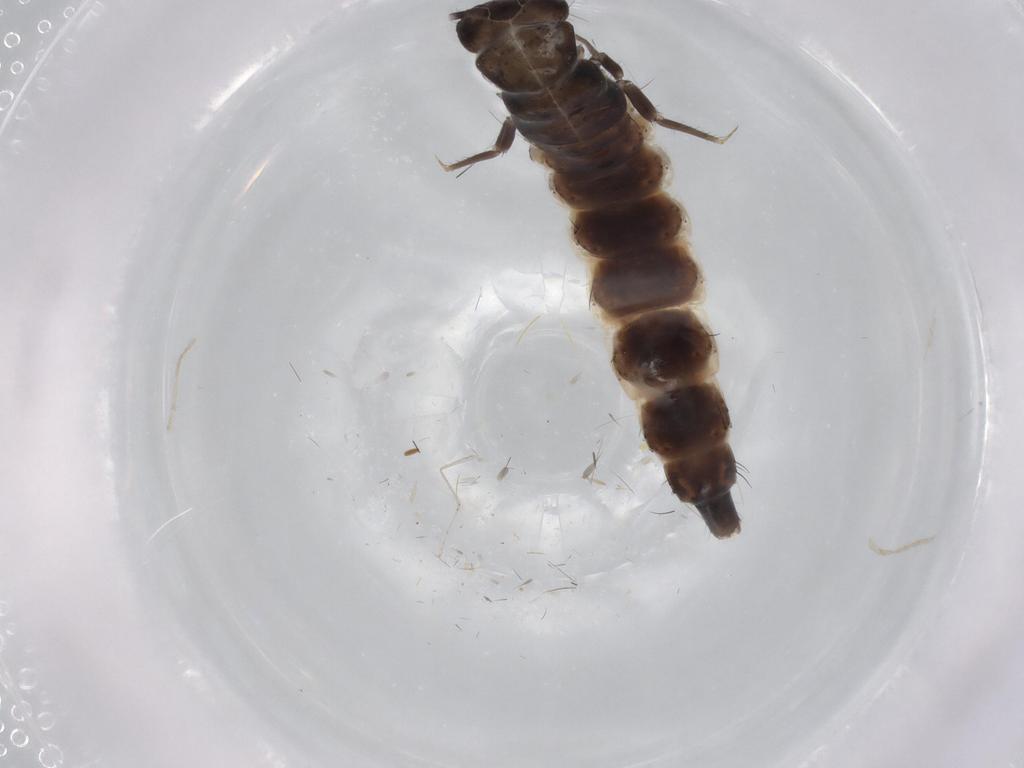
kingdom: Animalia
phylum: Arthropoda
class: Insecta
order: Coleoptera
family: Silvanidae
